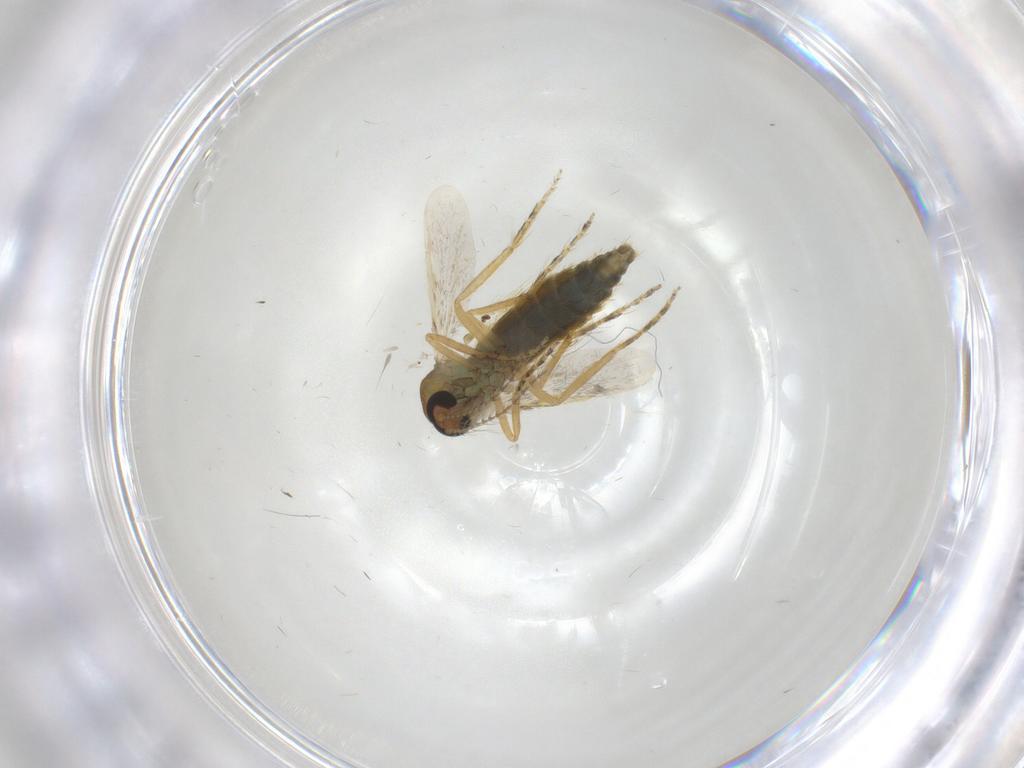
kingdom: Animalia
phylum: Arthropoda
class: Insecta
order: Diptera
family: Ceratopogonidae
